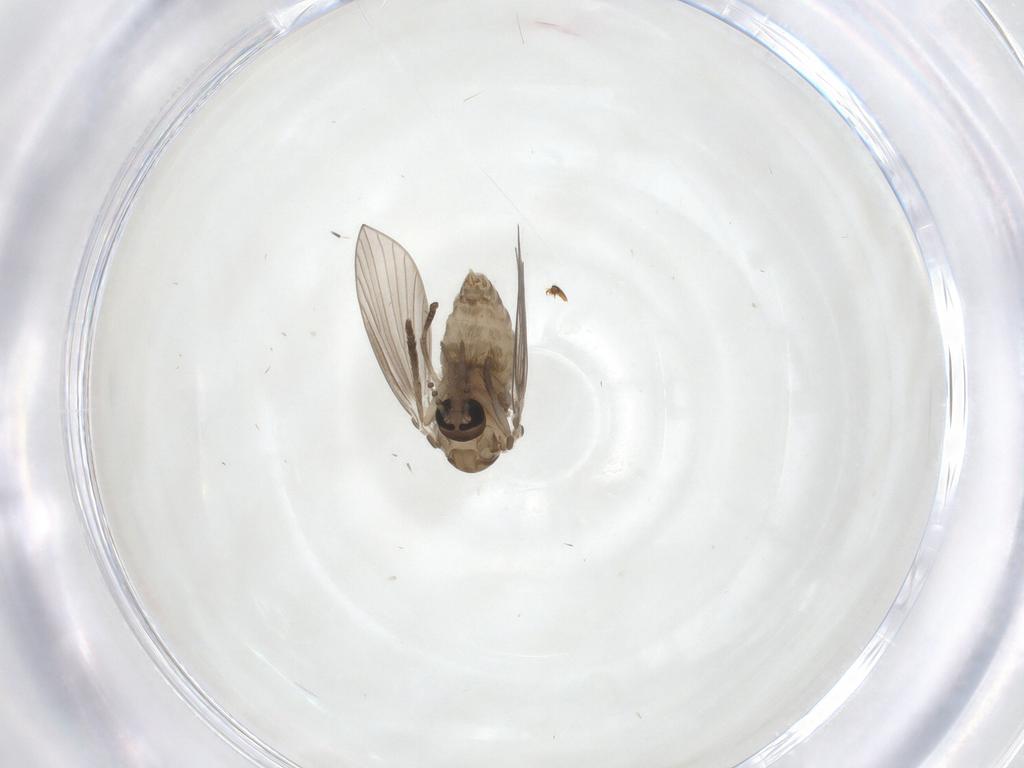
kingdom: Animalia
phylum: Arthropoda
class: Insecta
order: Diptera
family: Psychodidae
